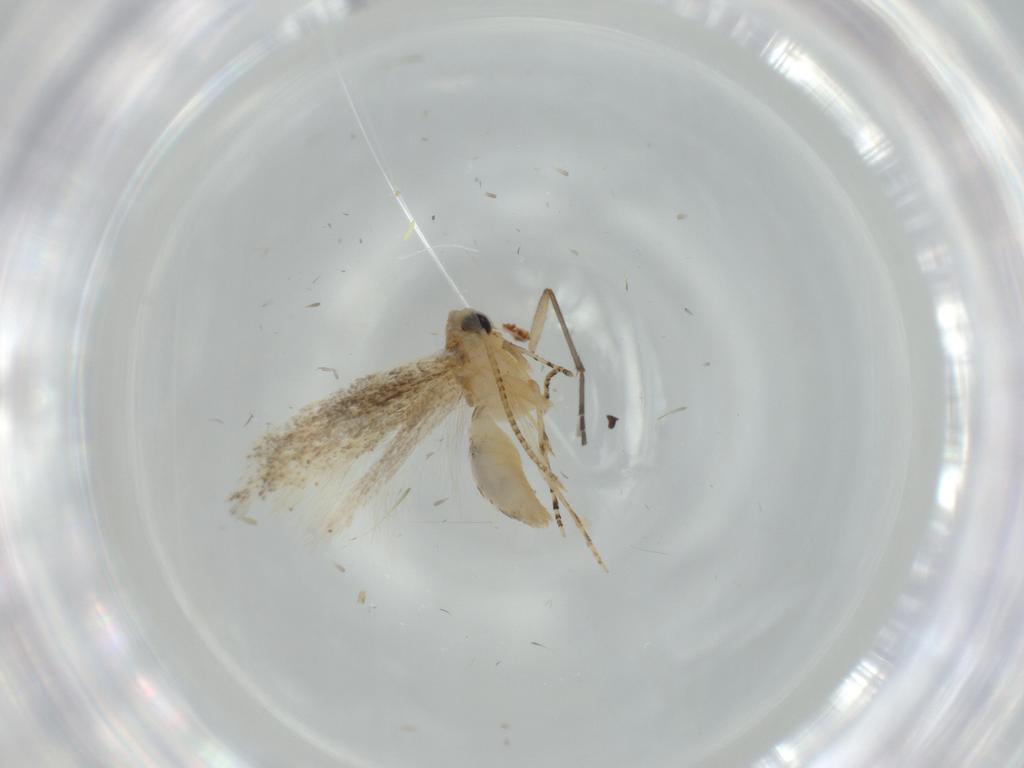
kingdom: Animalia
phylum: Arthropoda
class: Insecta
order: Lepidoptera
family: Bucculatricidae
